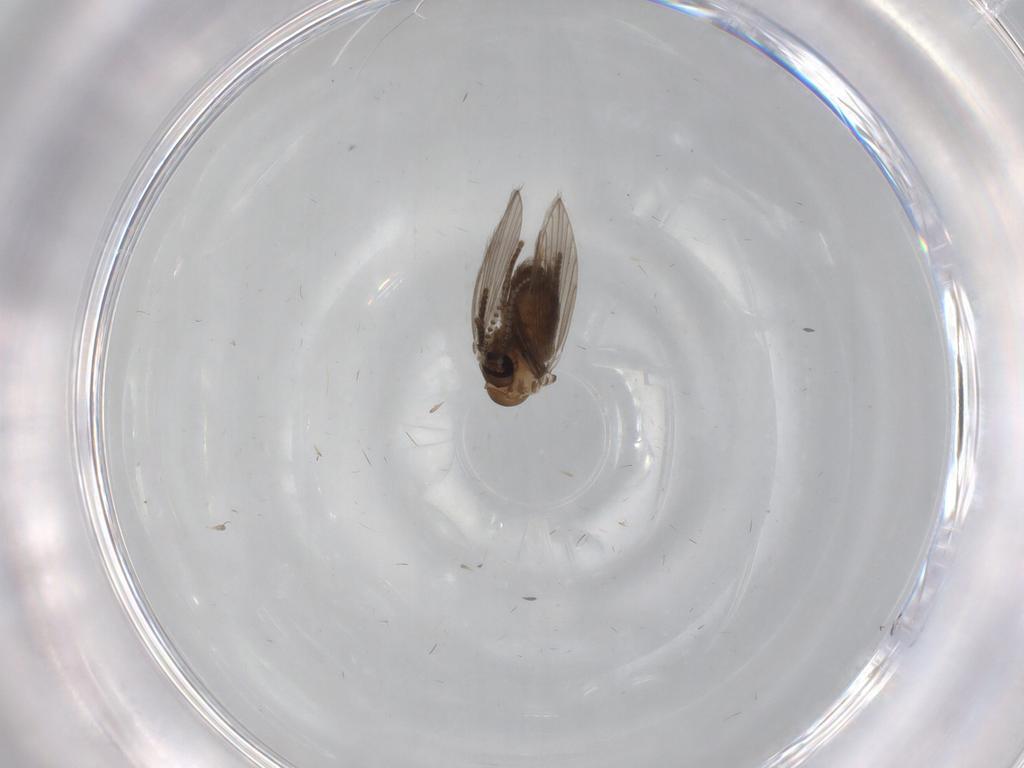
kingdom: Animalia
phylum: Arthropoda
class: Insecta
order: Diptera
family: Psychodidae
